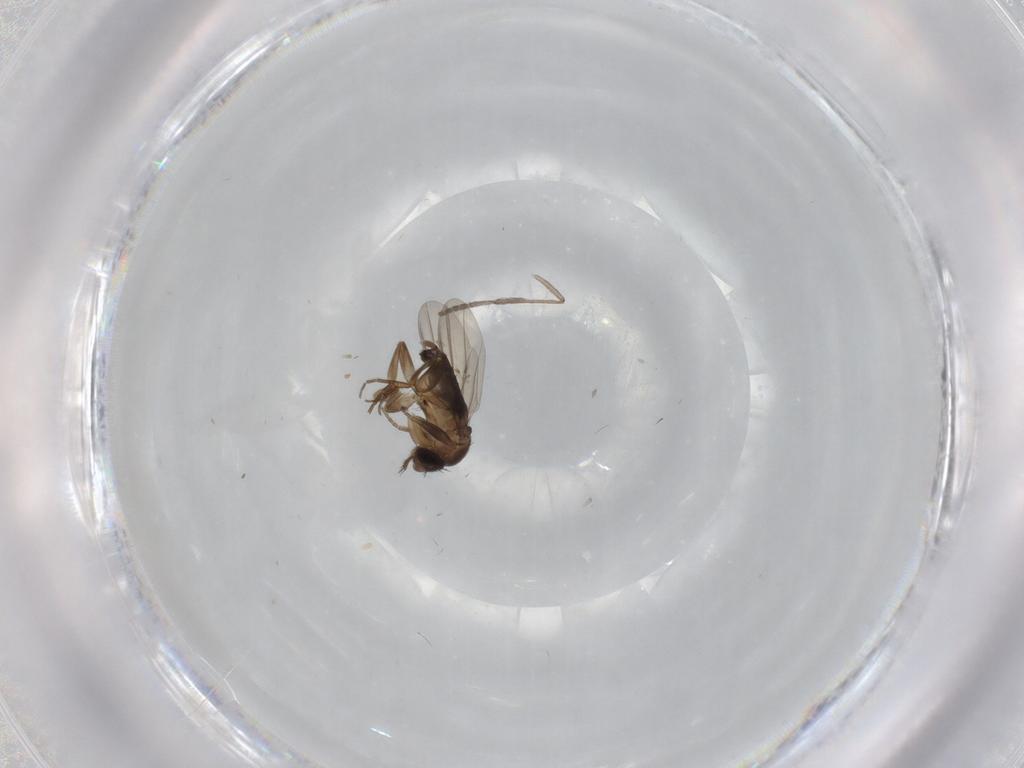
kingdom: Animalia
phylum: Arthropoda
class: Insecta
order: Diptera
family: Phoridae
